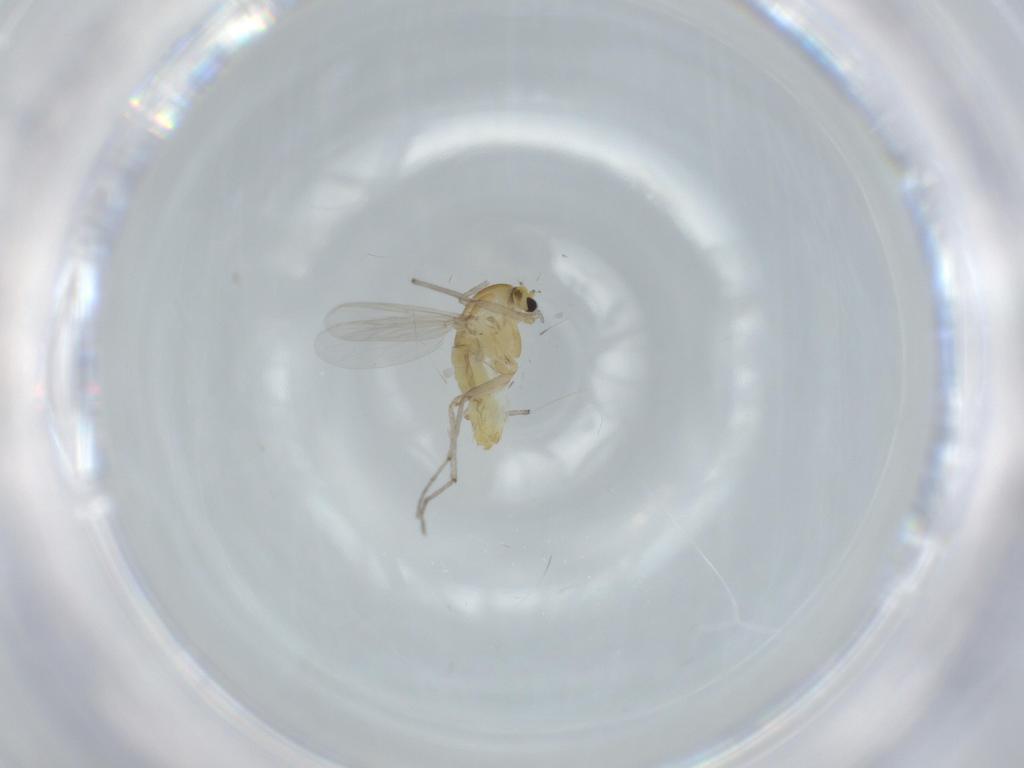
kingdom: Animalia
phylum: Arthropoda
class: Insecta
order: Diptera
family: Chironomidae
